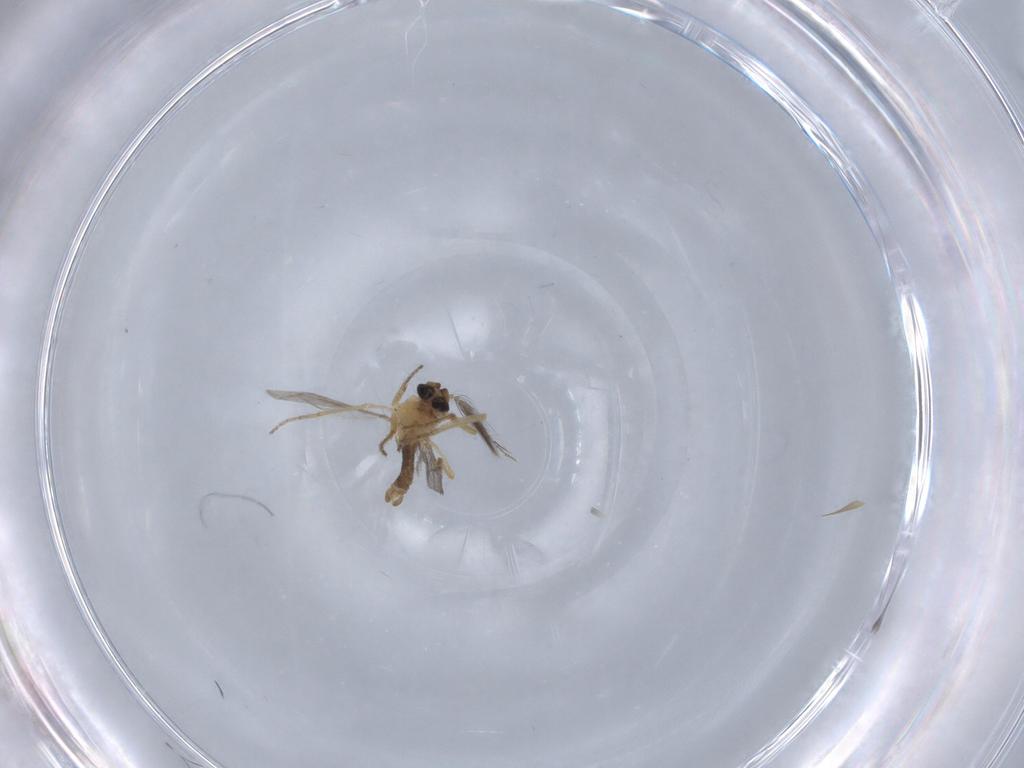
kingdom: Animalia
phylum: Arthropoda
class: Insecta
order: Diptera
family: Ceratopogonidae
